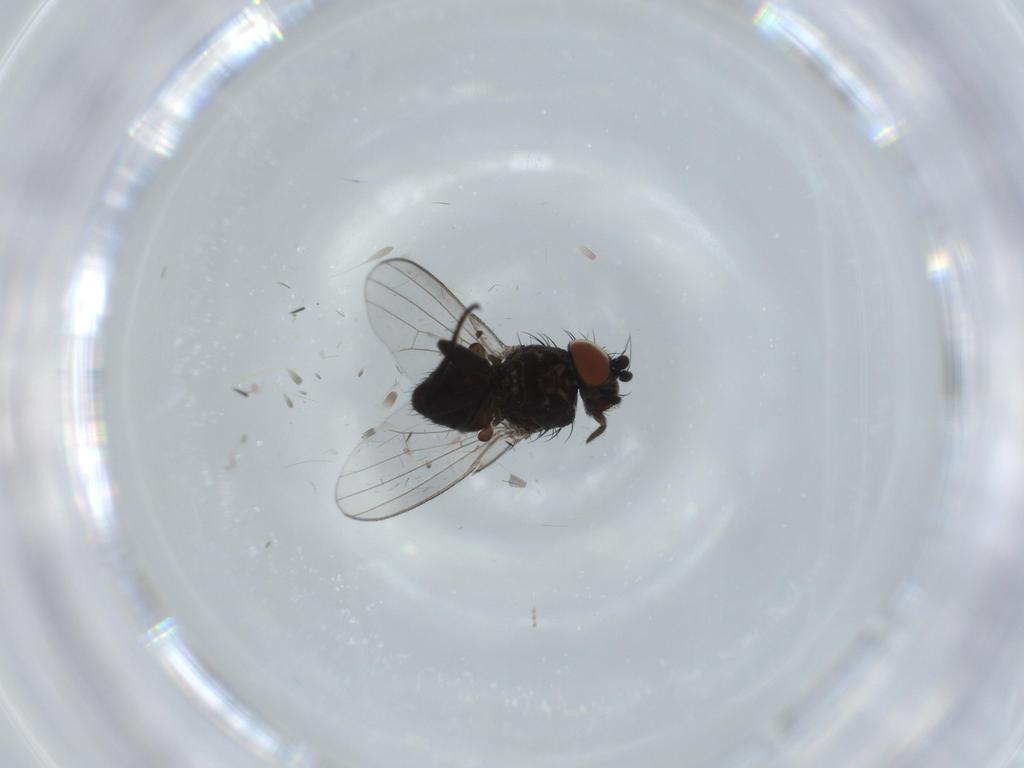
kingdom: Animalia
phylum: Arthropoda
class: Insecta
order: Diptera
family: Milichiidae
